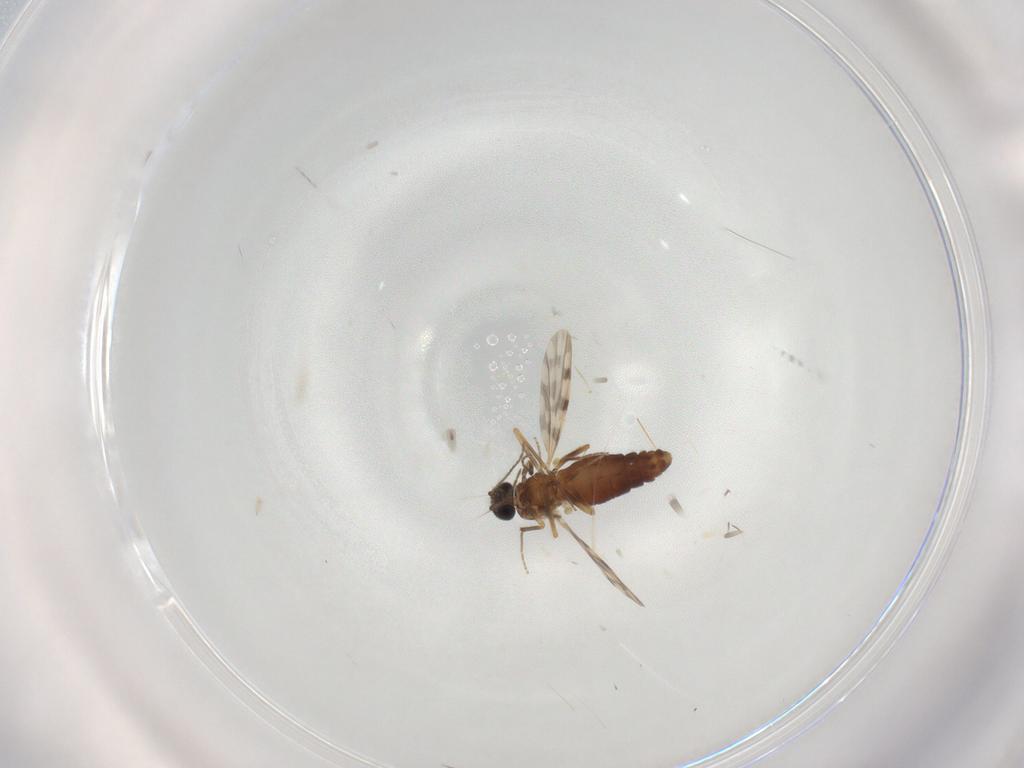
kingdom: Animalia
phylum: Arthropoda
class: Insecta
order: Diptera
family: Ceratopogonidae
